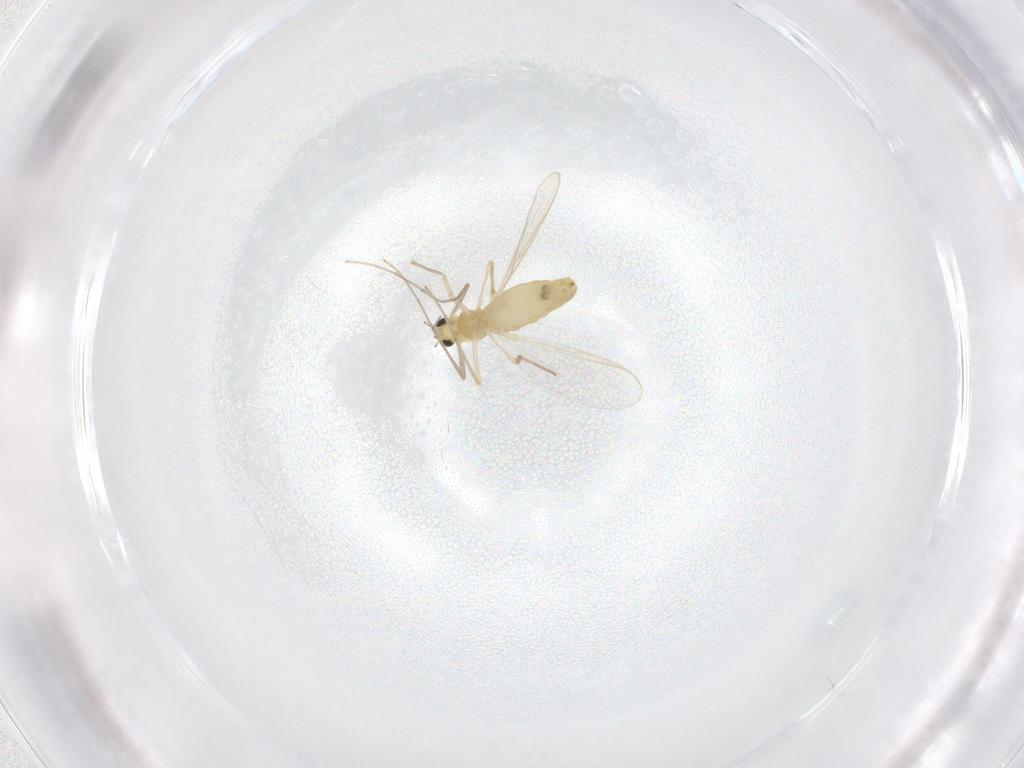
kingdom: Animalia
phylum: Arthropoda
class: Insecta
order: Diptera
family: Chironomidae
